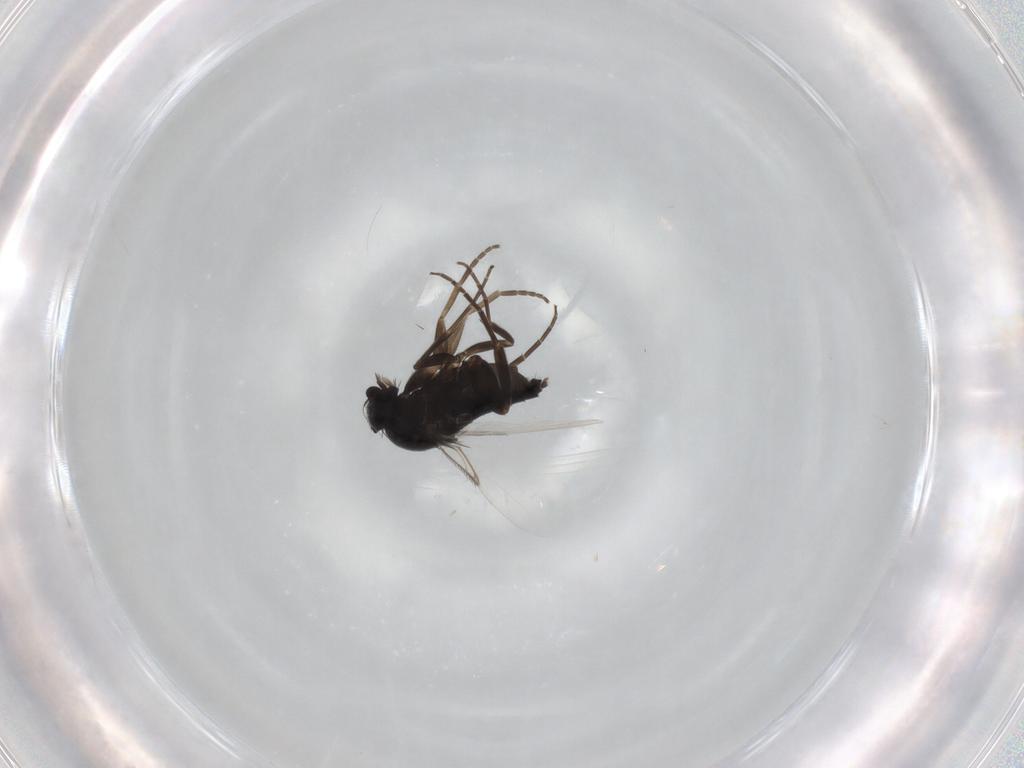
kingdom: Animalia
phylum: Arthropoda
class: Insecta
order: Diptera
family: Phoridae
